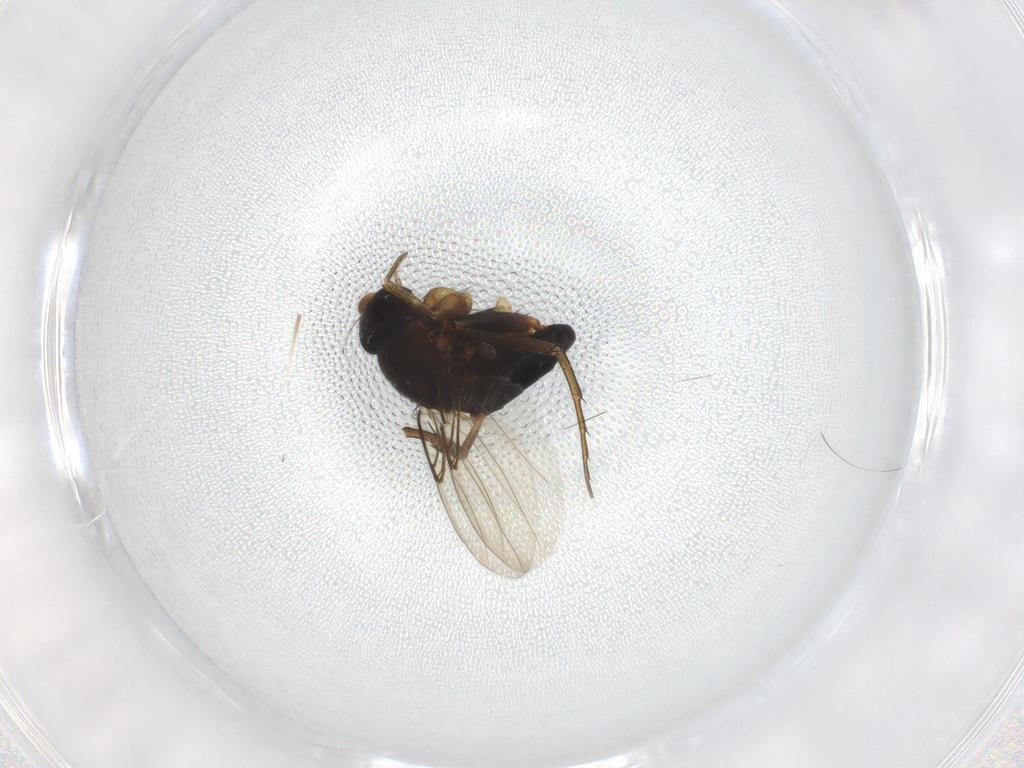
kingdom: Animalia
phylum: Arthropoda
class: Insecta
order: Diptera
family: Phoridae
